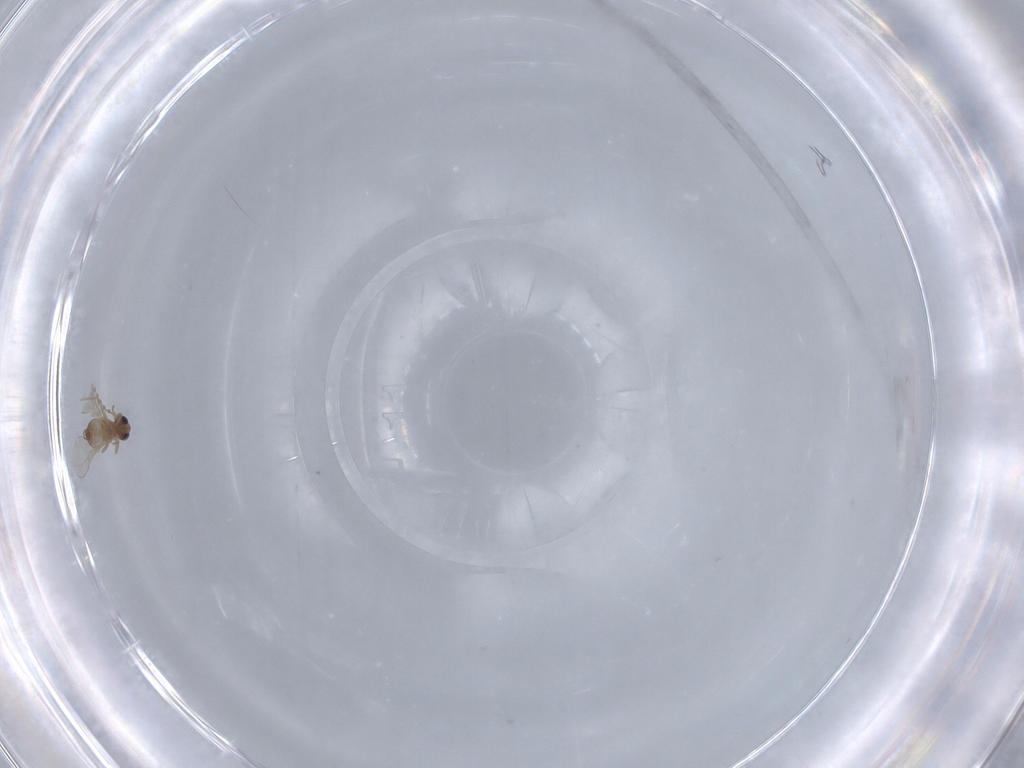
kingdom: Animalia
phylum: Arthropoda
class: Insecta
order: Diptera
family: Cecidomyiidae
